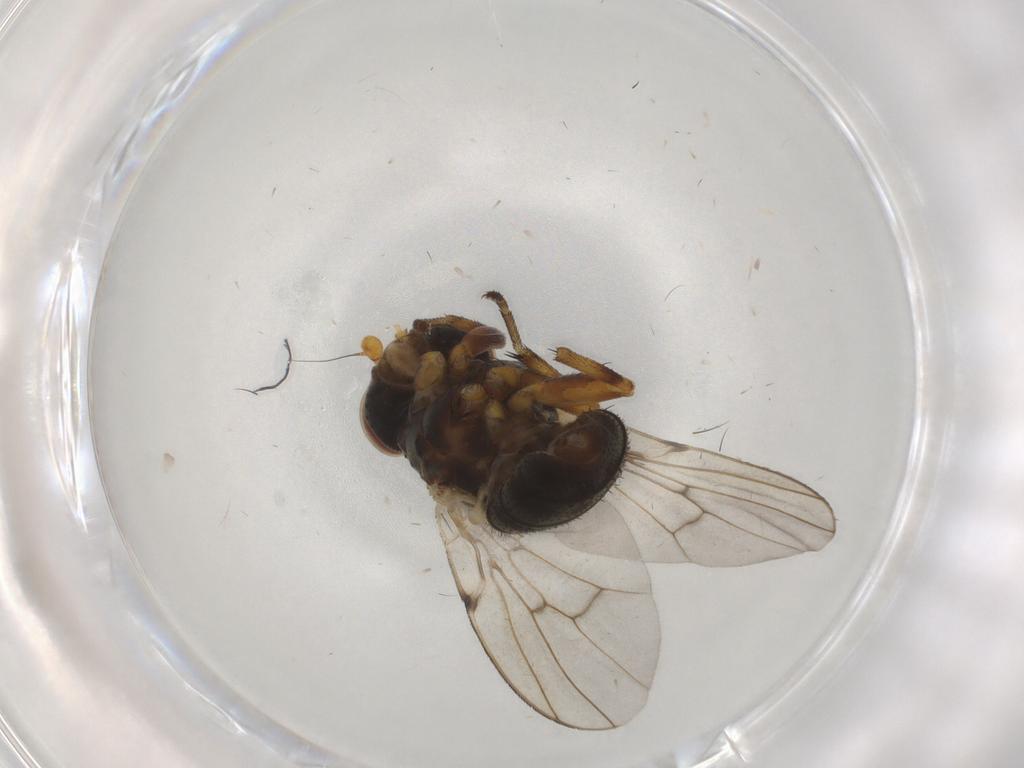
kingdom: Animalia
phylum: Arthropoda
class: Insecta
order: Diptera
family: Odiniidae
